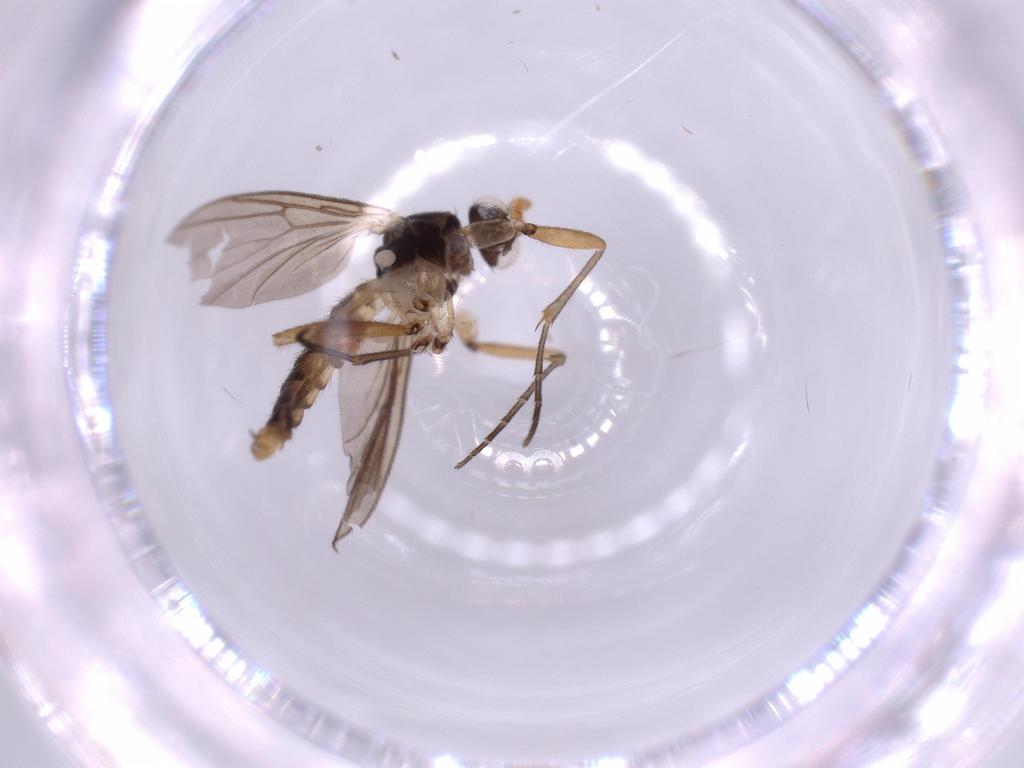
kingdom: Animalia
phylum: Arthropoda
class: Insecta
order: Diptera
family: Mycetophilidae
